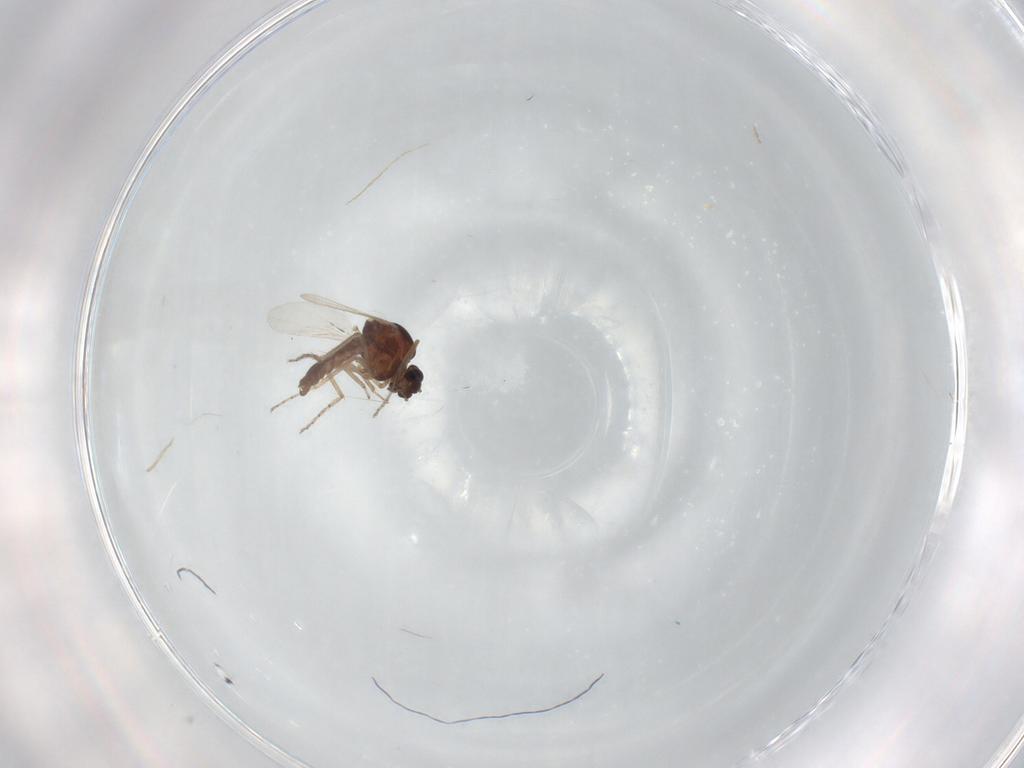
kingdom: Animalia
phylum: Arthropoda
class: Insecta
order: Diptera
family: Ceratopogonidae
